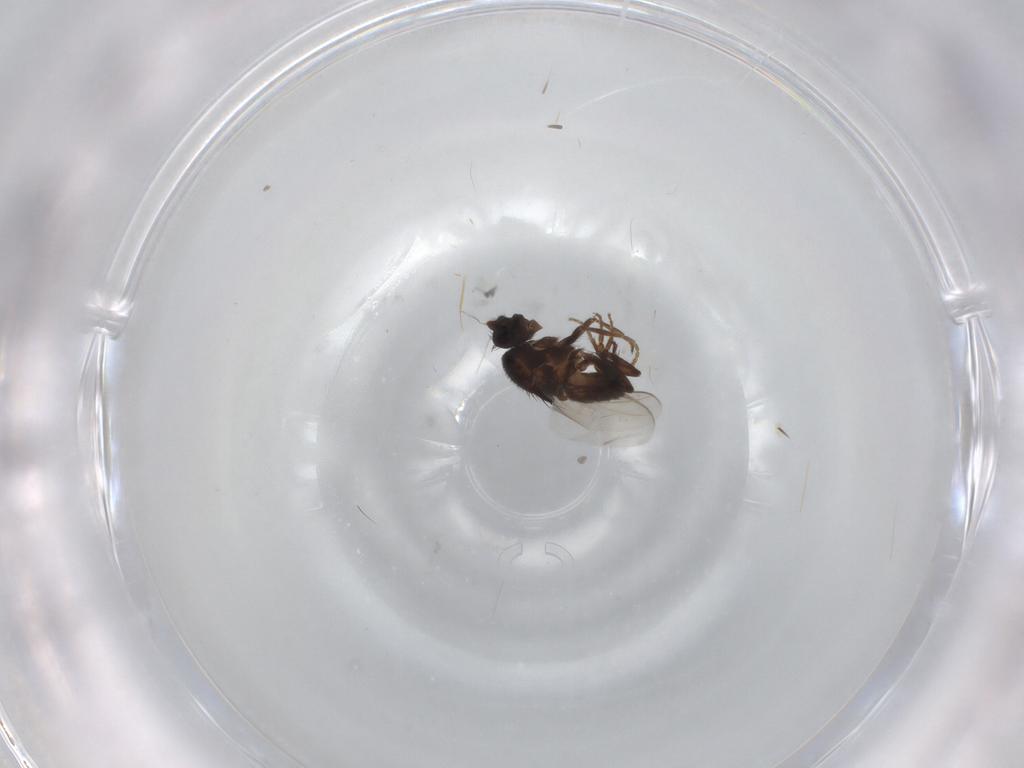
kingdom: Animalia
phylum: Arthropoda
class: Insecta
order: Diptera
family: Sphaeroceridae
